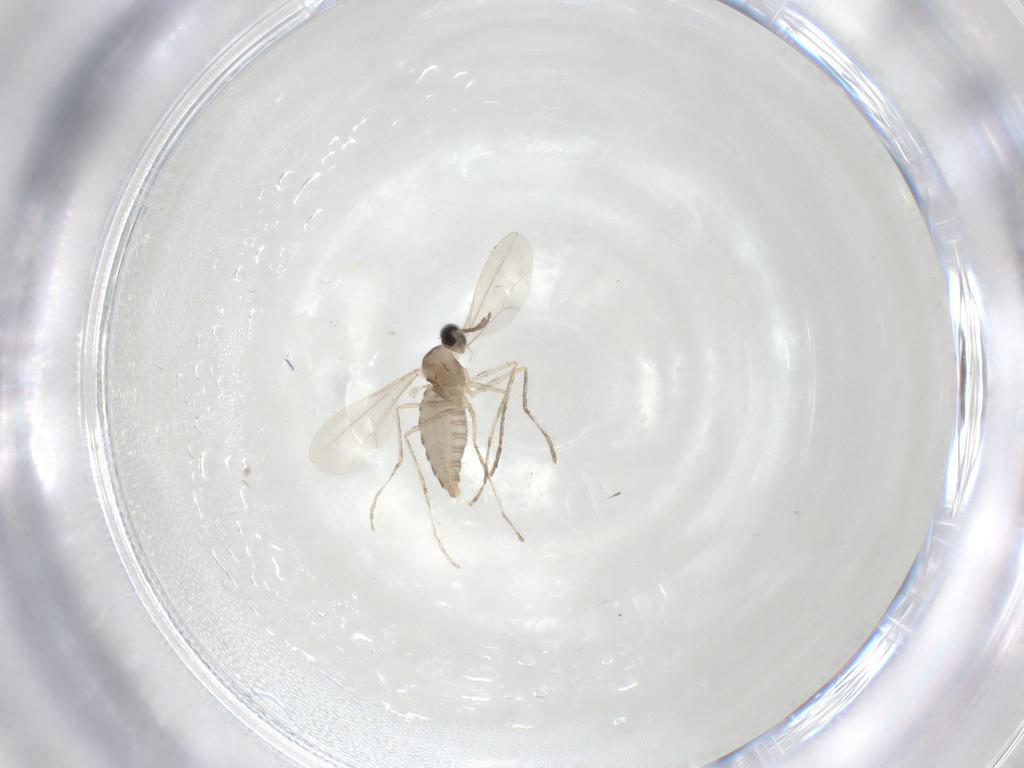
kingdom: Animalia
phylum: Arthropoda
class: Insecta
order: Diptera
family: Cecidomyiidae
